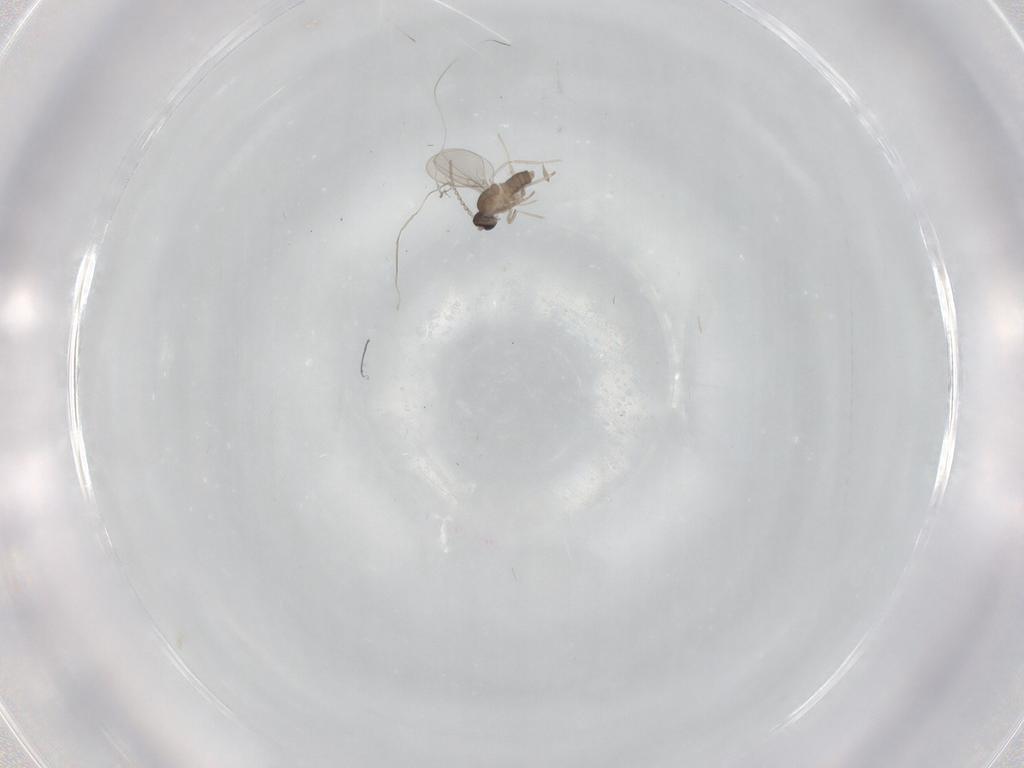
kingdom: Animalia
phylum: Arthropoda
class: Insecta
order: Diptera
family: Cecidomyiidae
